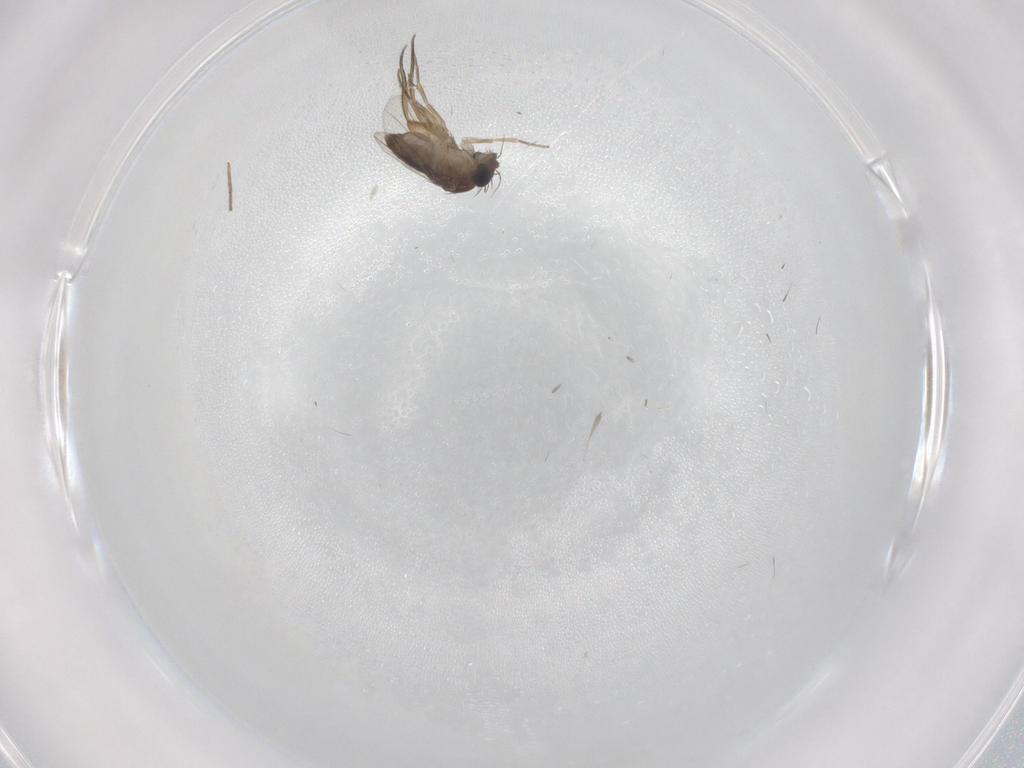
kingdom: Animalia
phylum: Arthropoda
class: Insecta
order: Diptera
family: Phoridae
